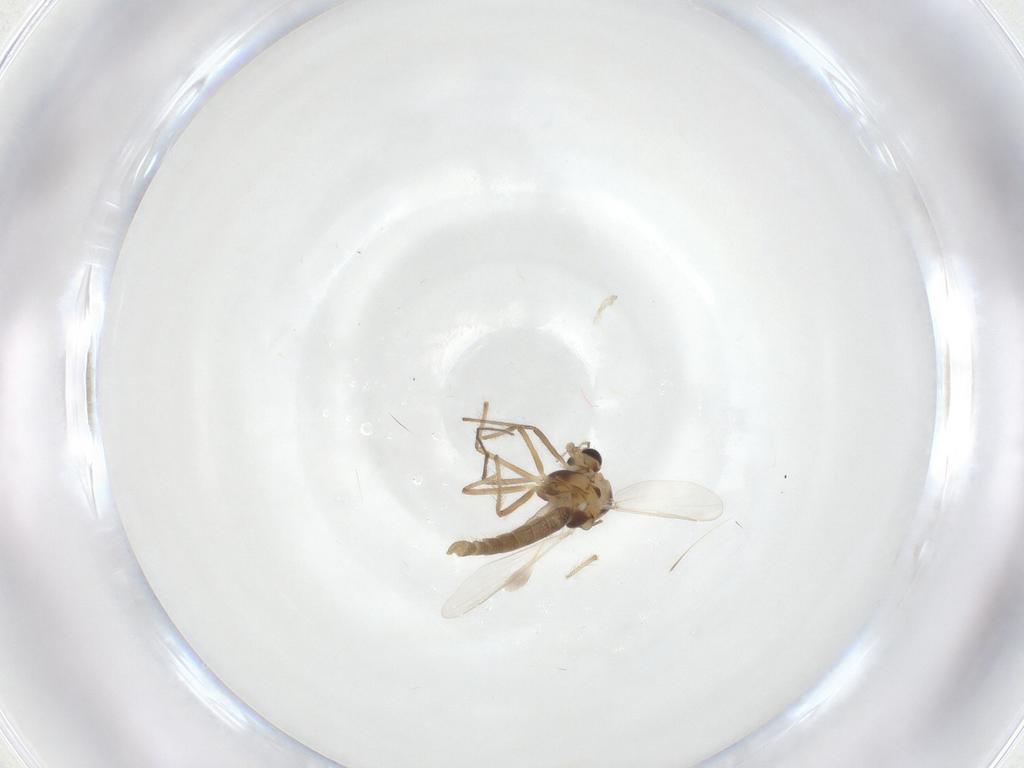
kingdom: Animalia
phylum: Arthropoda
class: Insecta
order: Diptera
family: Chironomidae
